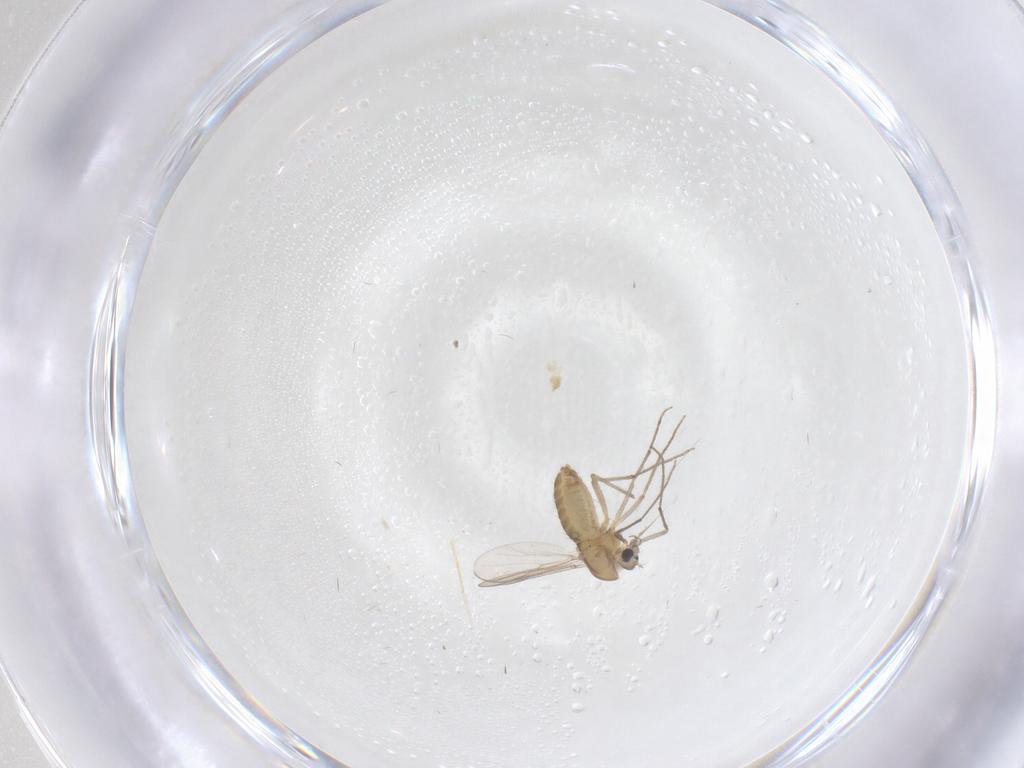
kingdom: Animalia
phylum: Arthropoda
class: Insecta
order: Diptera
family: Chironomidae
